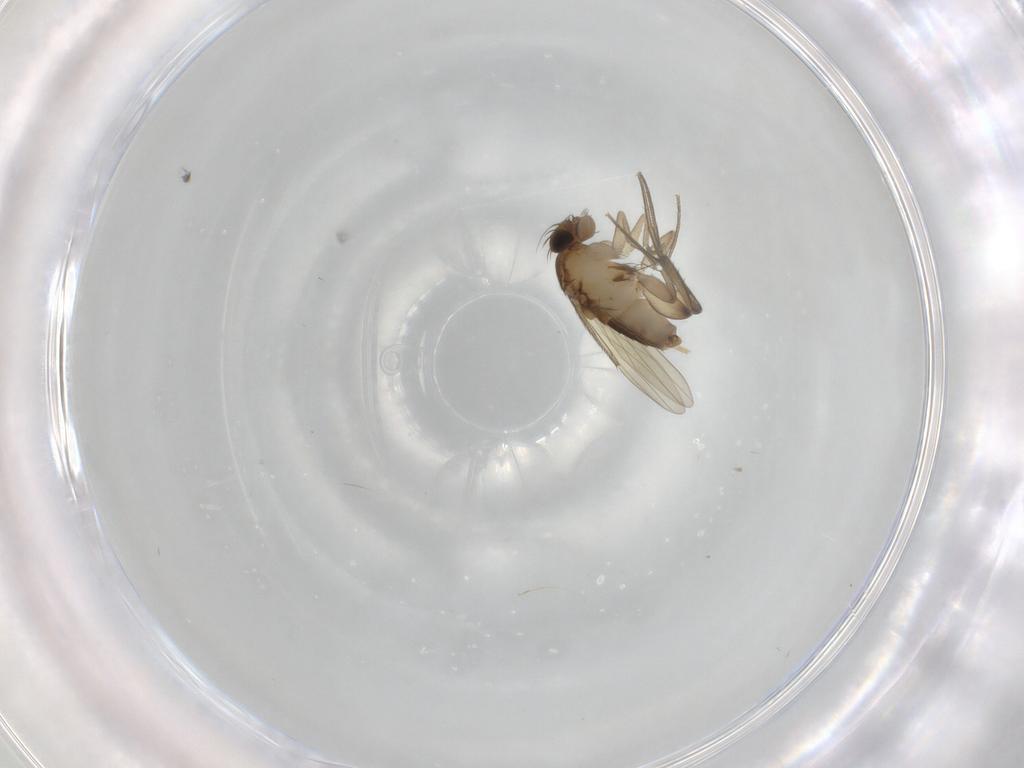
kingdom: Animalia
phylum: Arthropoda
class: Insecta
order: Diptera
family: Phoridae
